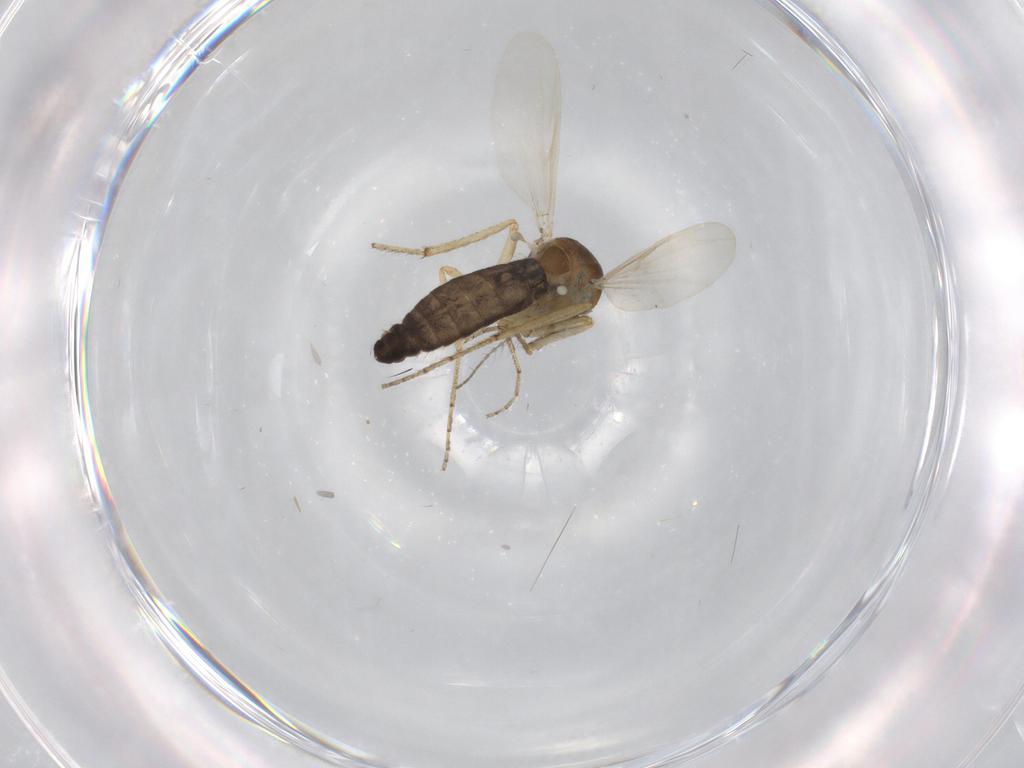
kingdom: Animalia
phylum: Arthropoda
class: Insecta
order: Diptera
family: Ceratopogonidae
